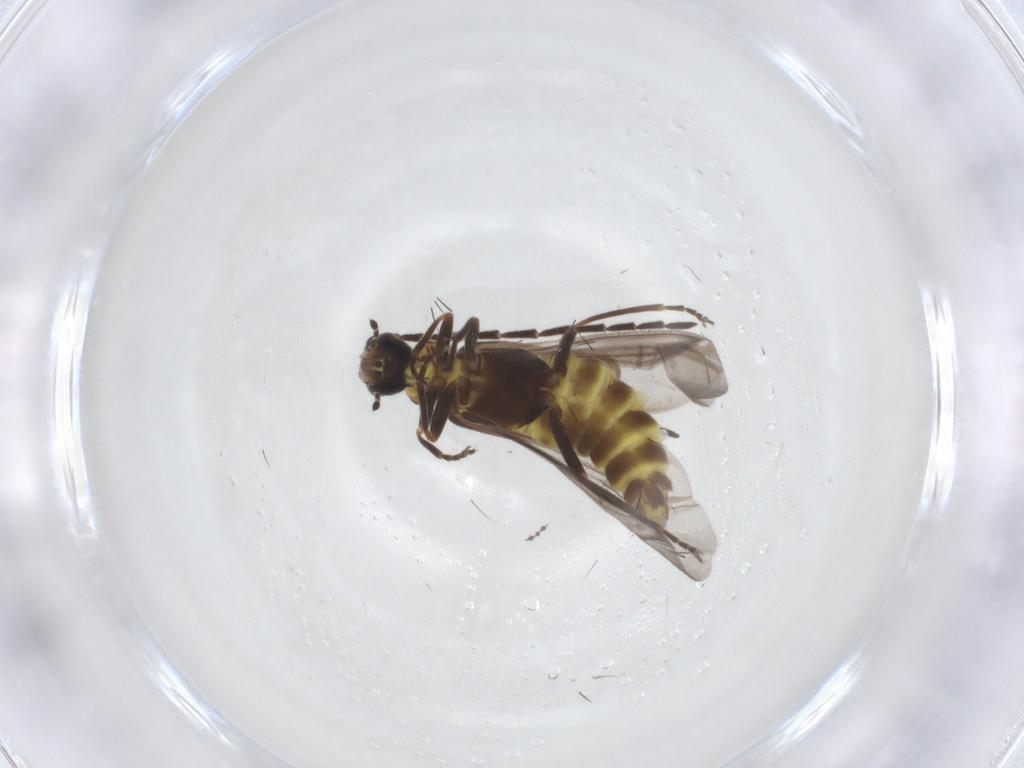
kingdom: Animalia
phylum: Arthropoda
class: Insecta
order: Coleoptera
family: Cantharidae
